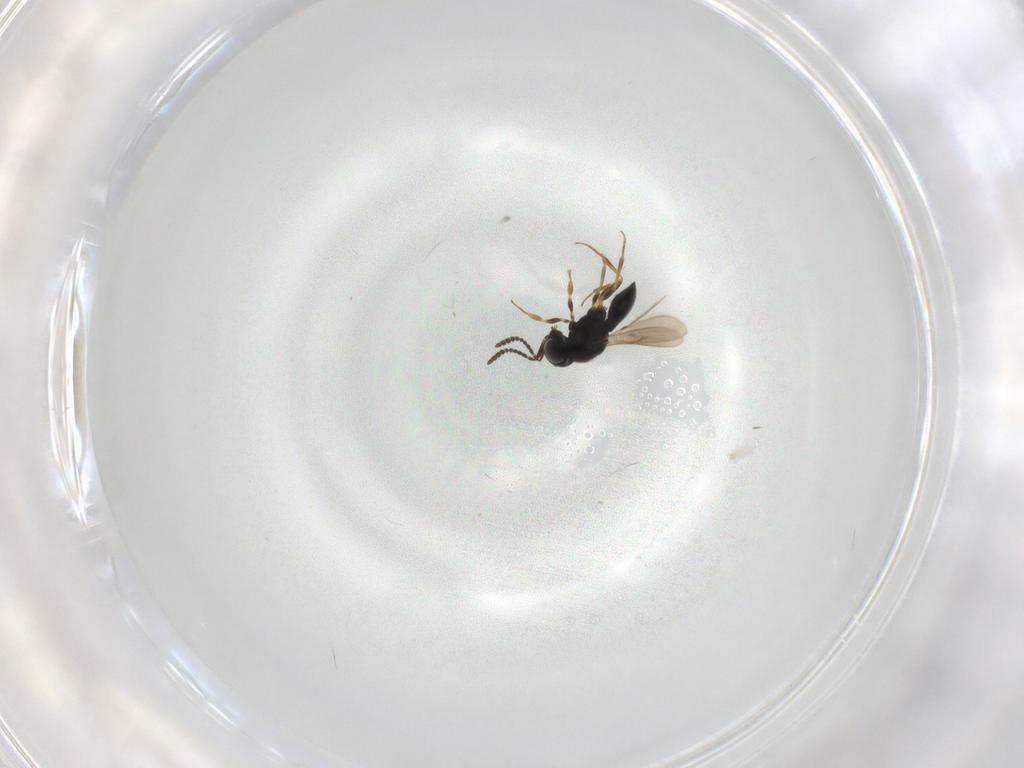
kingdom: Animalia
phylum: Arthropoda
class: Insecta
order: Hymenoptera
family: Scelionidae
